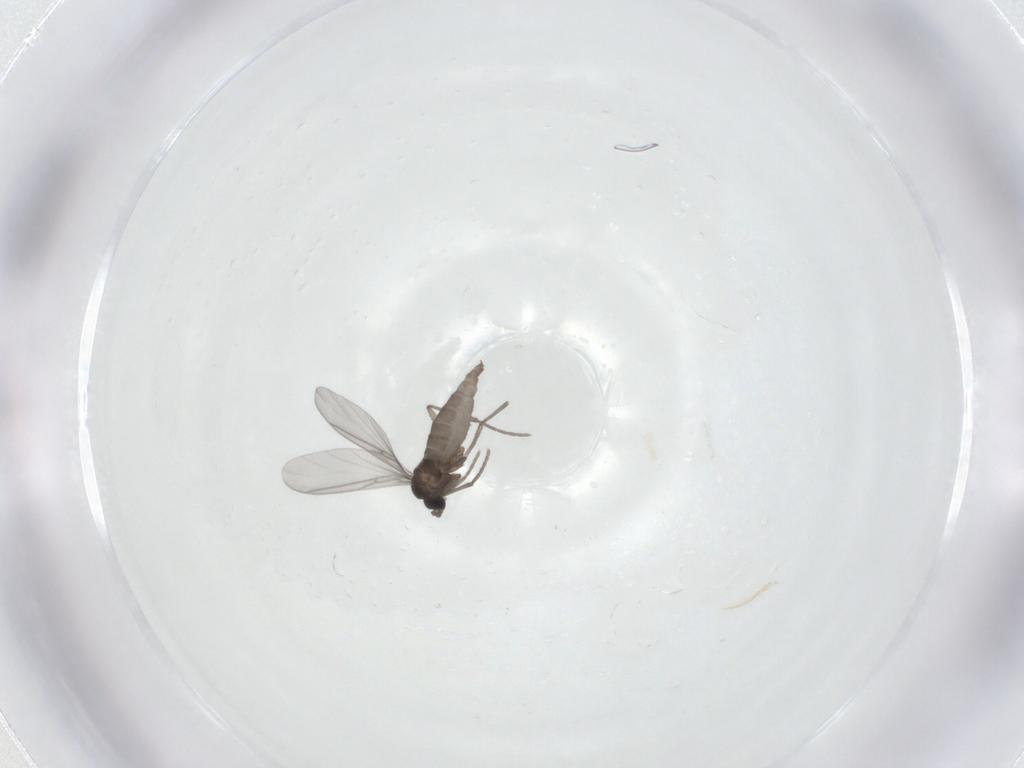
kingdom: Animalia
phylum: Arthropoda
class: Insecta
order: Diptera
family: Sciaridae
